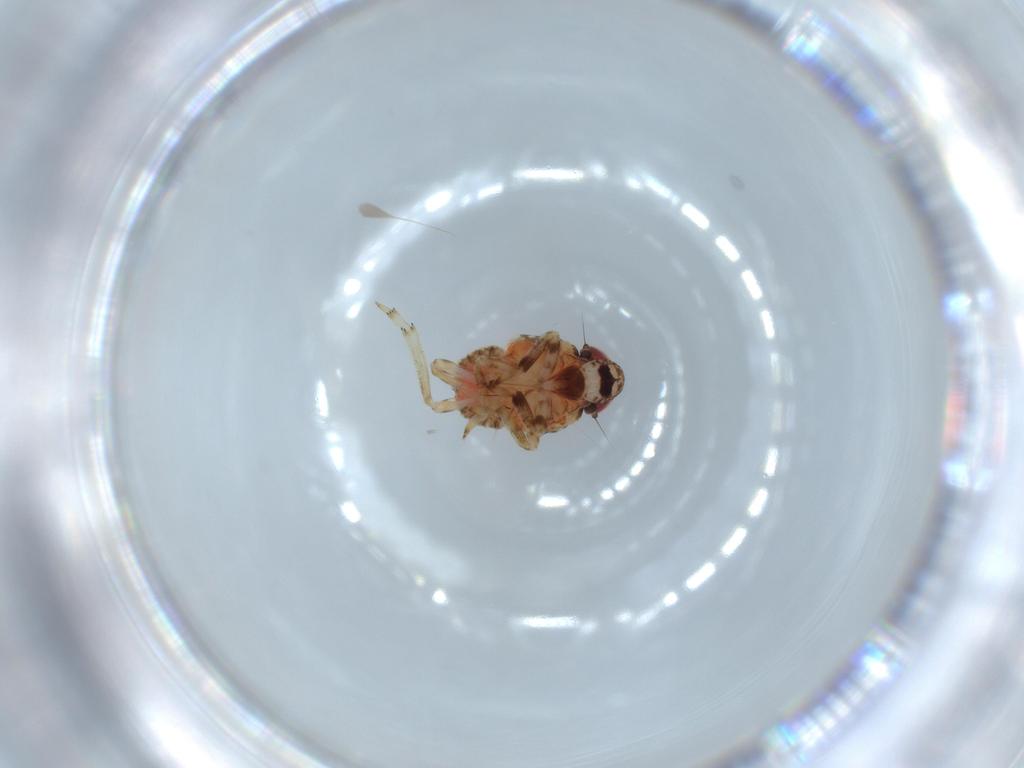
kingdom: Animalia
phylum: Arthropoda
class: Insecta
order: Hemiptera
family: Issidae
